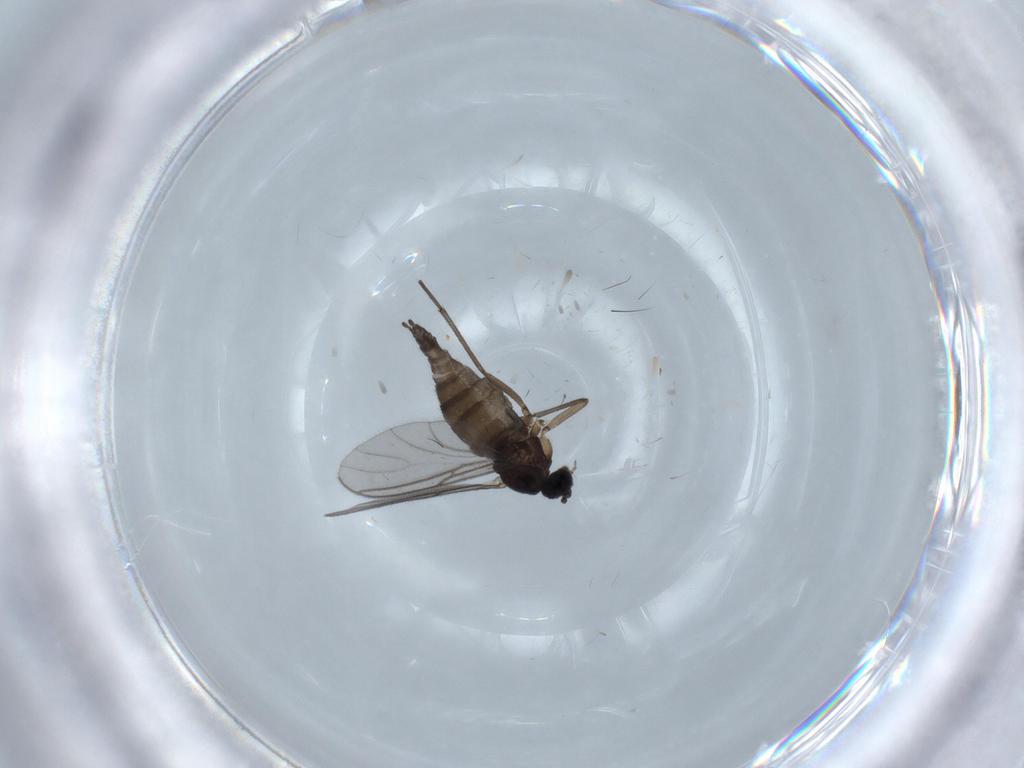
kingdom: Animalia
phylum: Arthropoda
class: Insecta
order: Diptera
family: Sciaridae
